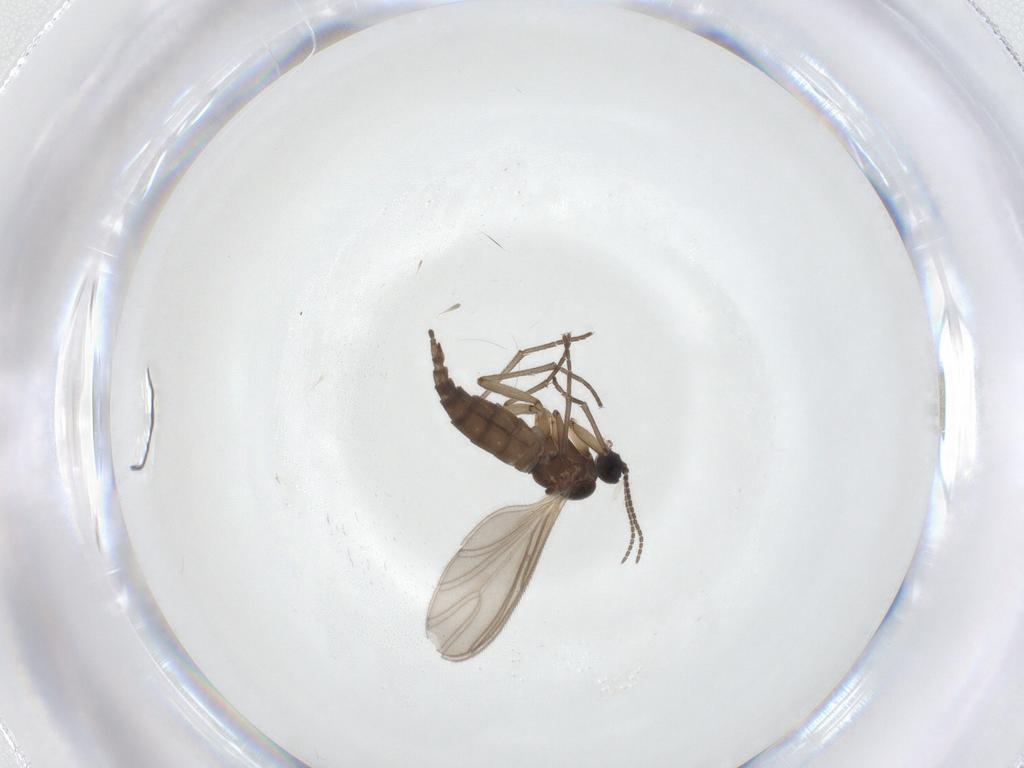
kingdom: Animalia
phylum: Arthropoda
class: Insecta
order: Diptera
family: Sciaridae
